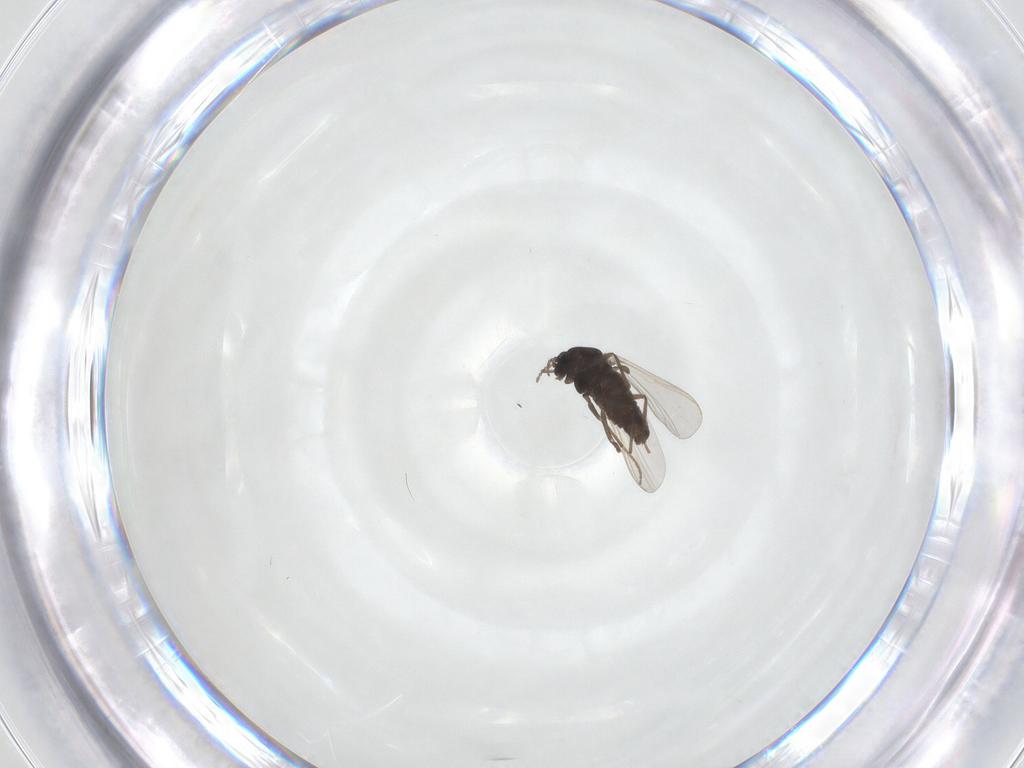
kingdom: Animalia
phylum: Arthropoda
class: Insecta
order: Diptera
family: Chironomidae
